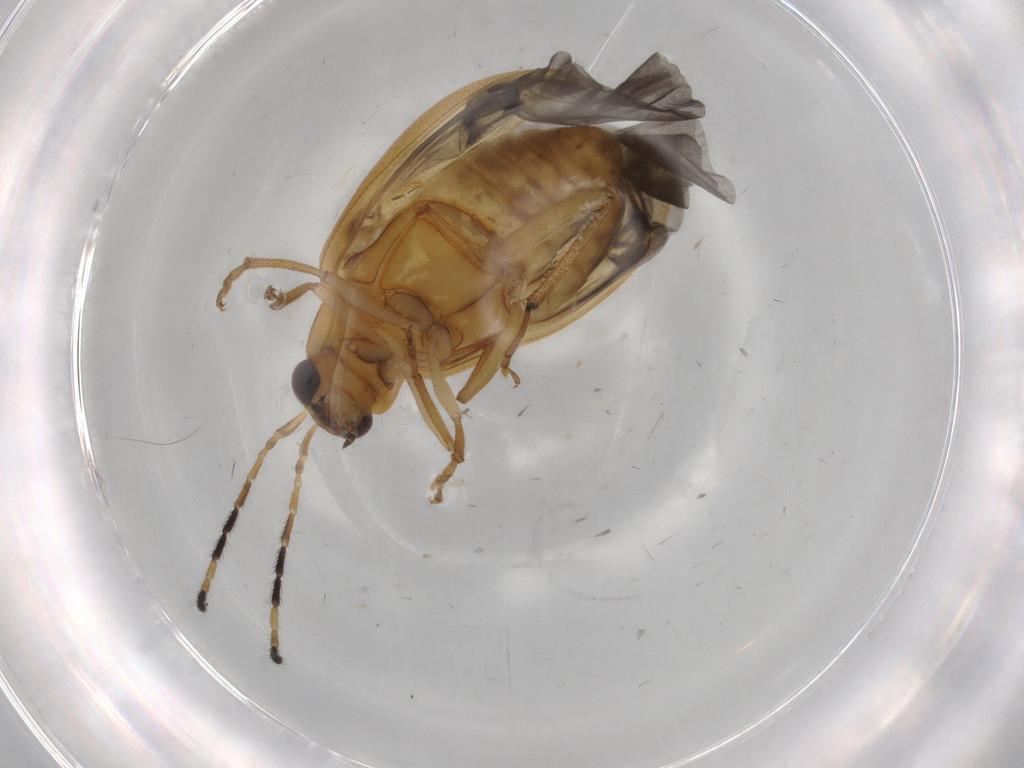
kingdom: Animalia
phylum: Arthropoda
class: Insecta
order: Coleoptera
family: Chrysomelidae
